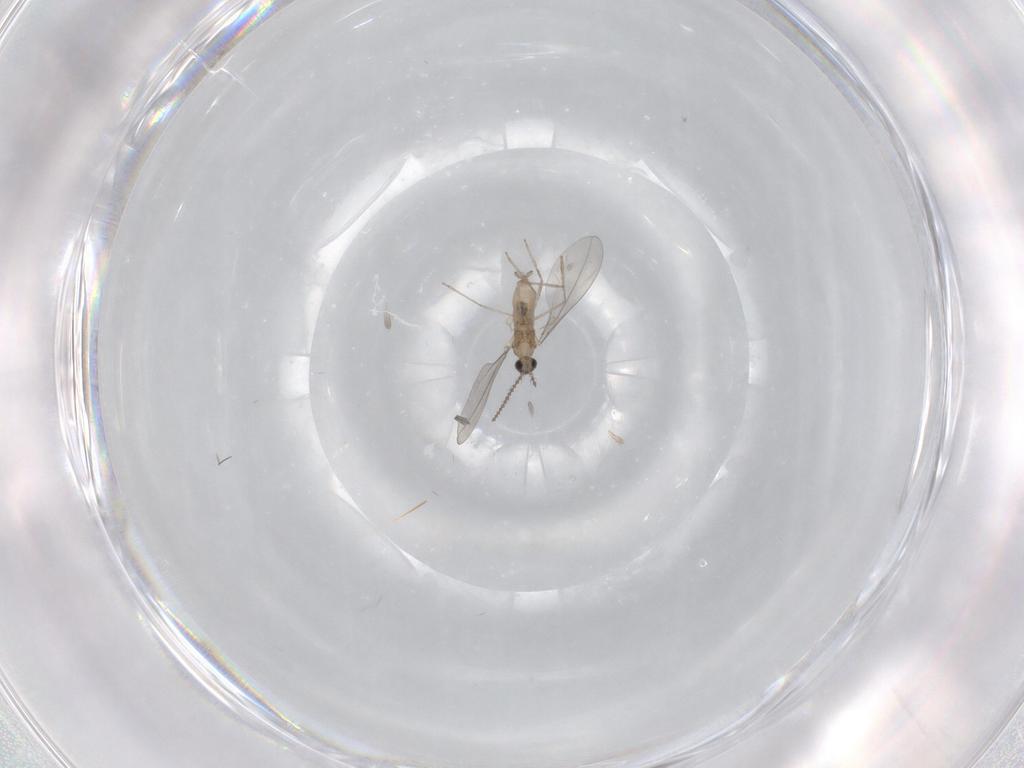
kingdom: Animalia
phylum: Arthropoda
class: Insecta
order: Diptera
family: Cecidomyiidae
